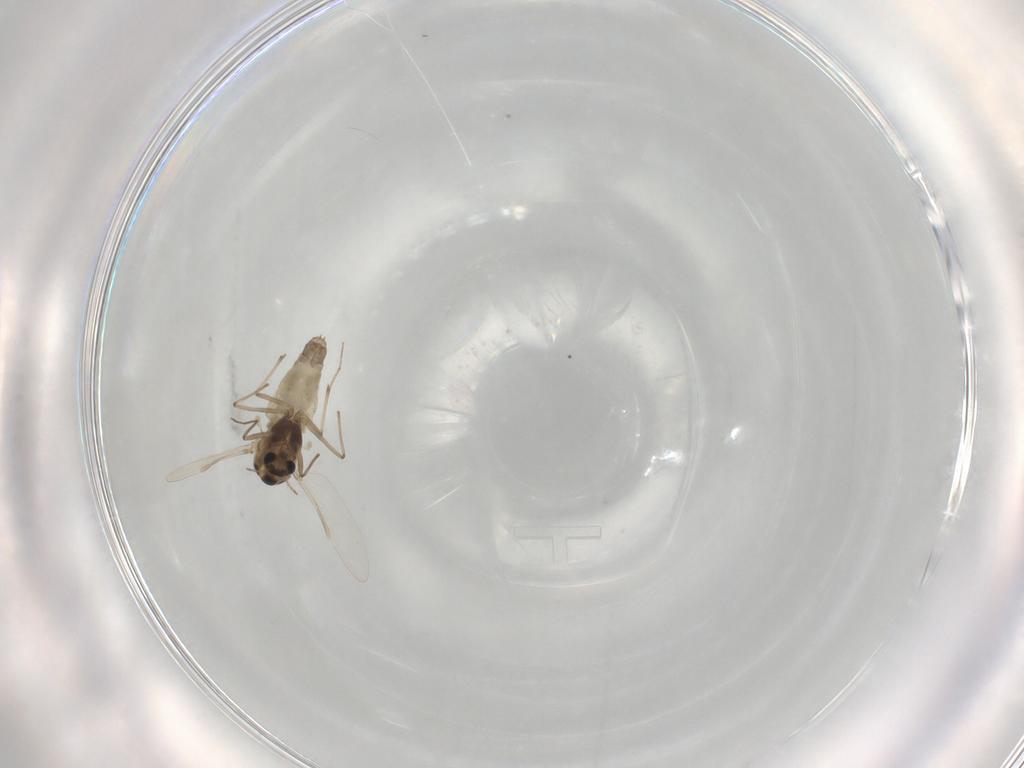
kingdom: Animalia
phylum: Arthropoda
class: Insecta
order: Diptera
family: Chironomidae
